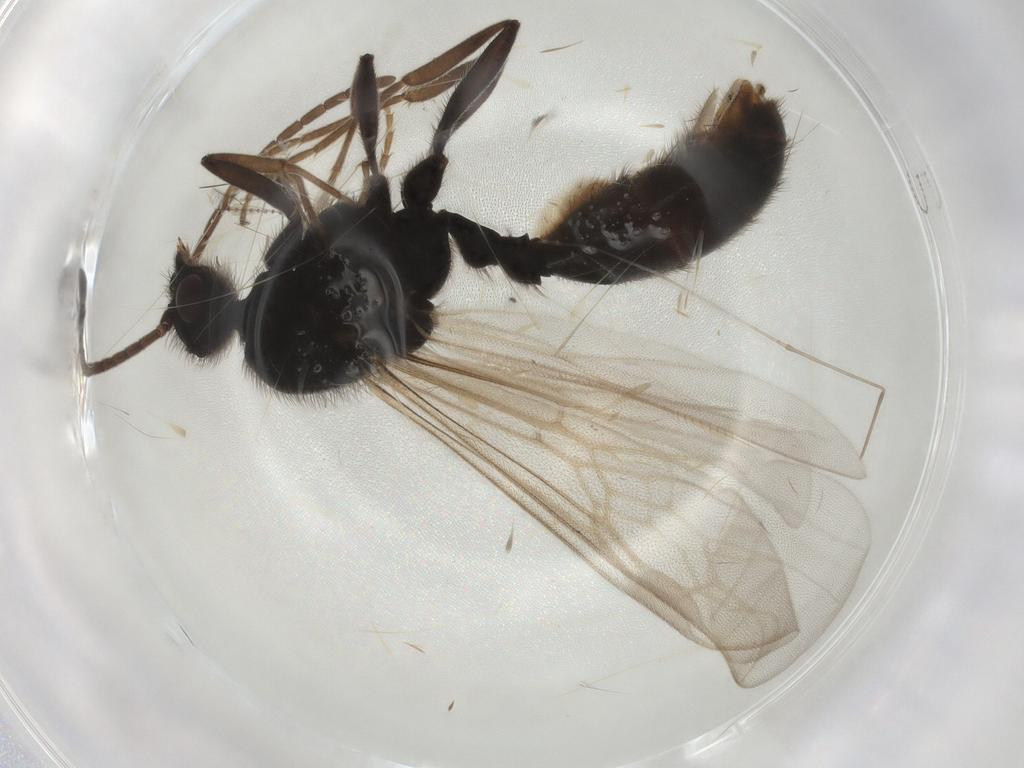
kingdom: Animalia
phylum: Arthropoda
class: Insecta
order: Hymenoptera
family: Formicidae
